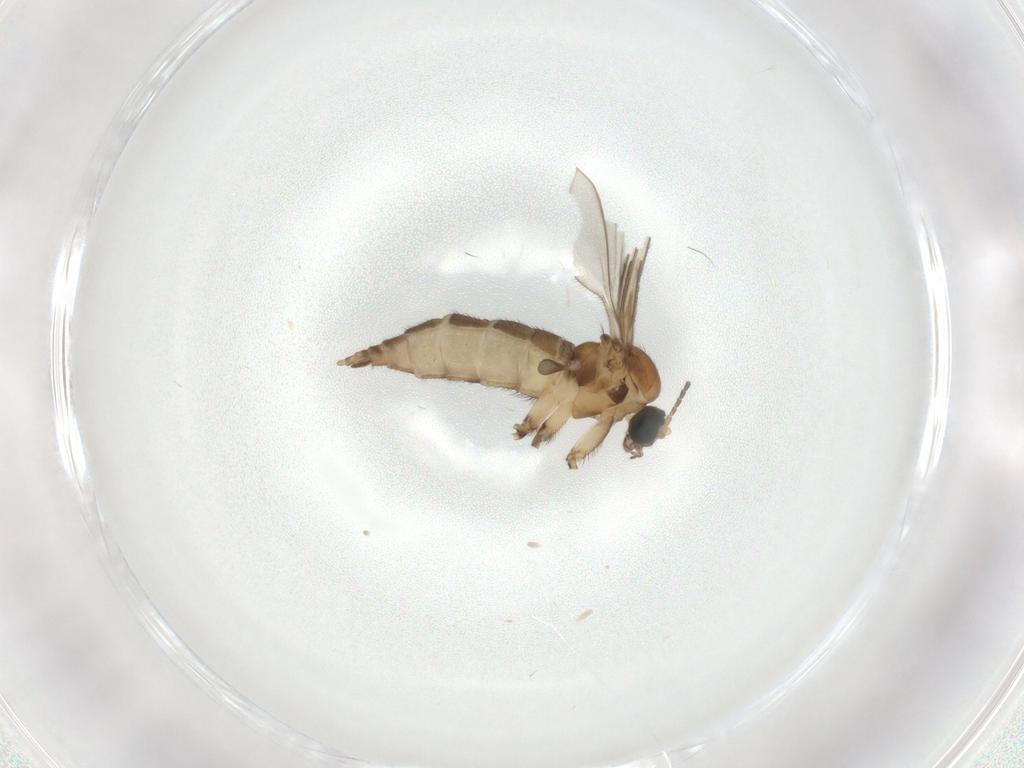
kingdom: Animalia
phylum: Arthropoda
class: Insecta
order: Diptera
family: Sciaridae
